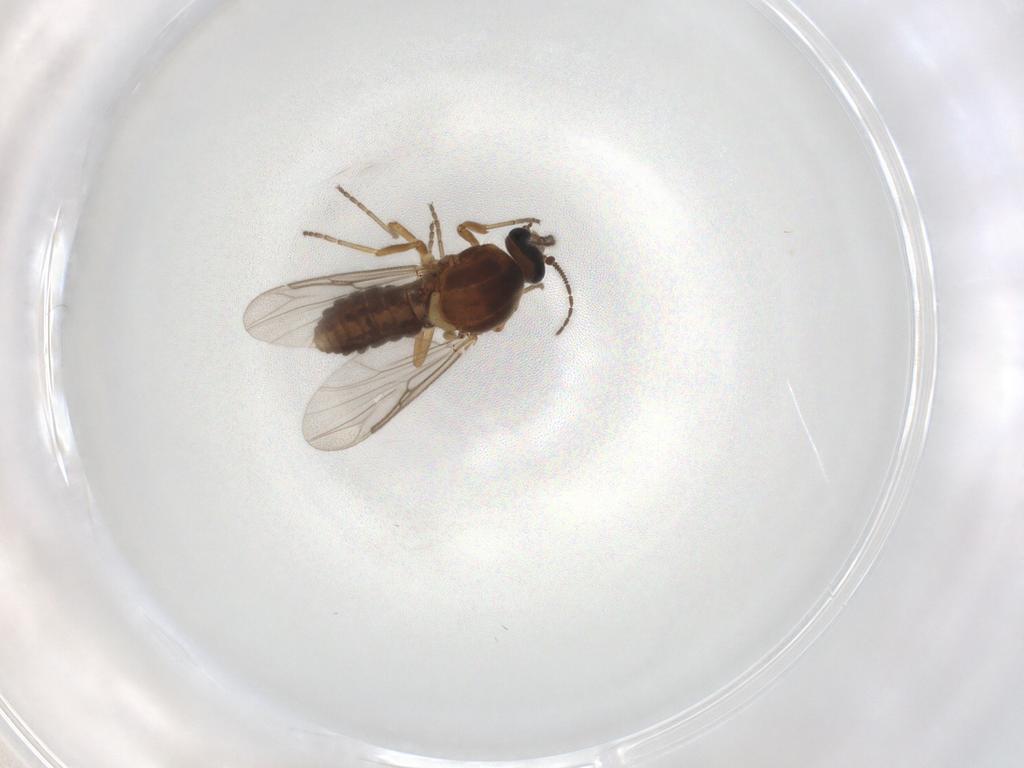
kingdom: Animalia
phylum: Arthropoda
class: Insecta
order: Diptera
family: Ceratopogonidae
